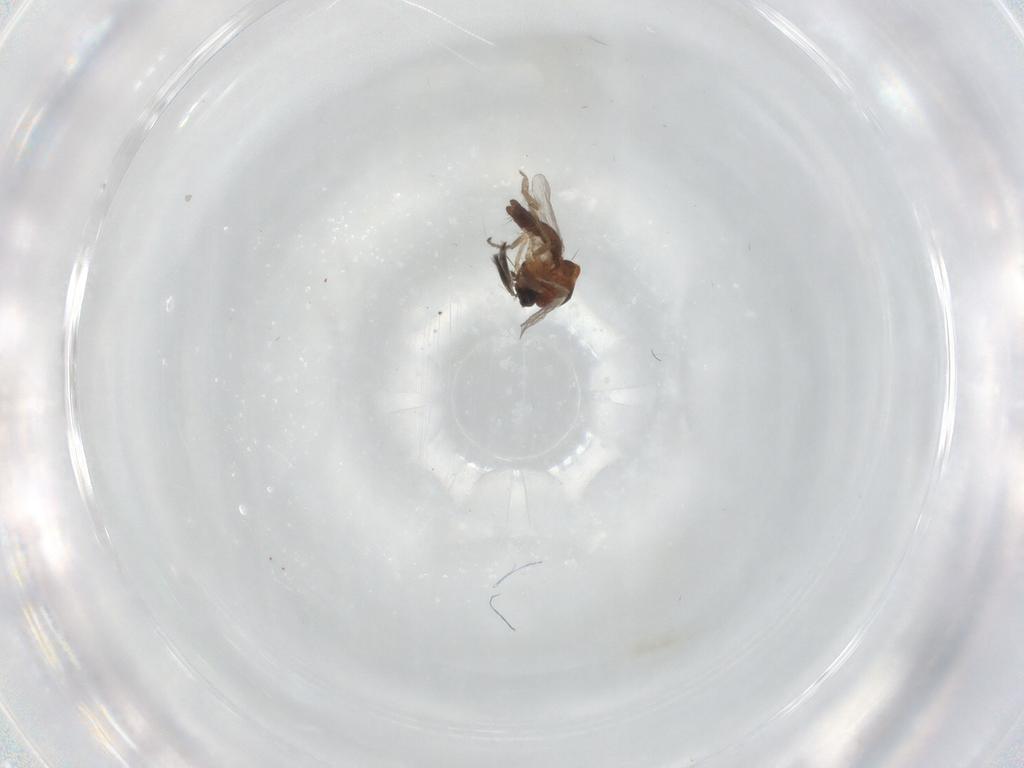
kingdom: Animalia
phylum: Arthropoda
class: Insecta
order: Diptera
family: Ceratopogonidae
